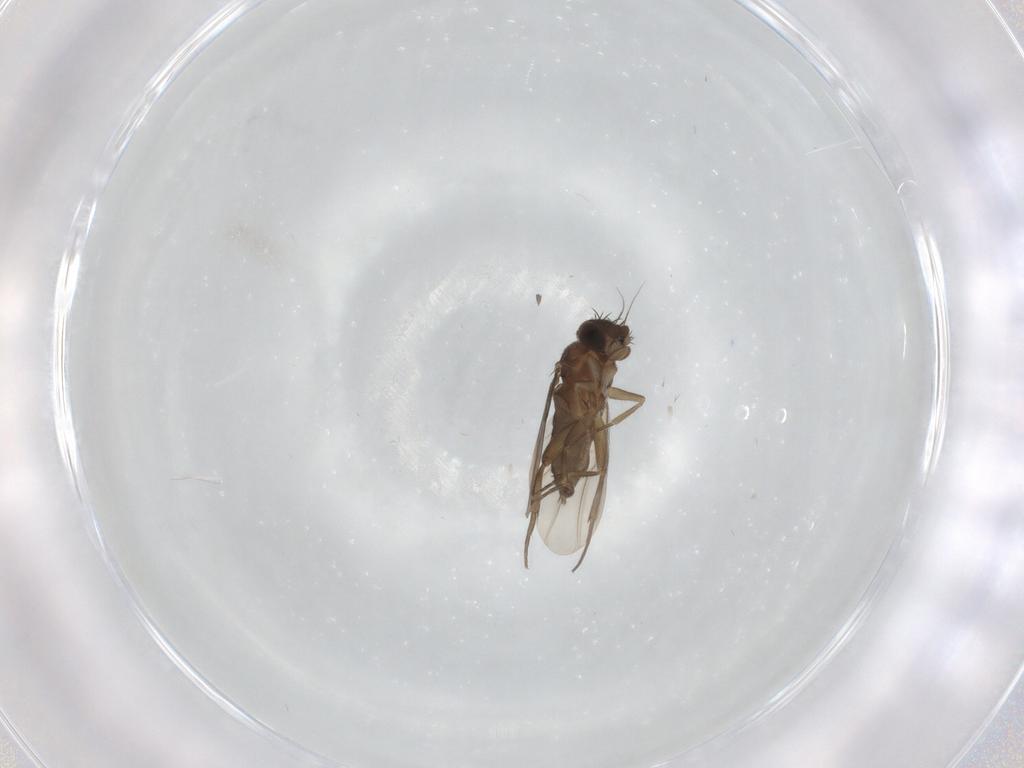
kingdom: Animalia
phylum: Arthropoda
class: Insecta
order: Diptera
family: Phoridae
